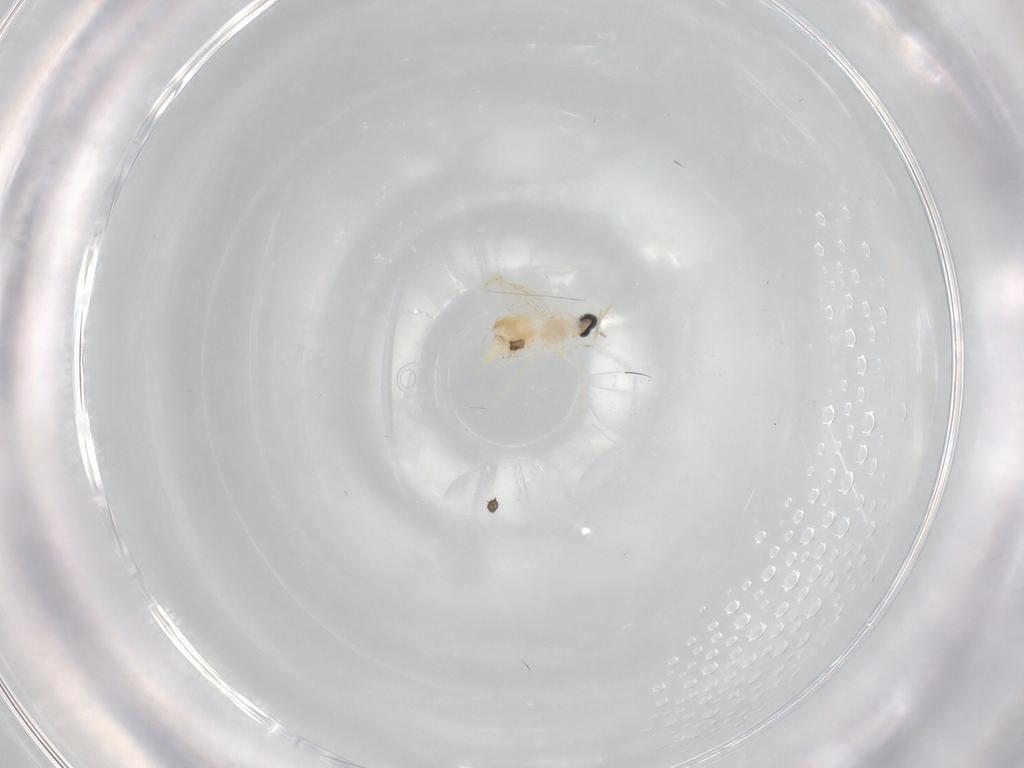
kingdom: Animalia
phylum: Arthropoda
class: Insecta
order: Diptera
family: Cecidomyiidae
